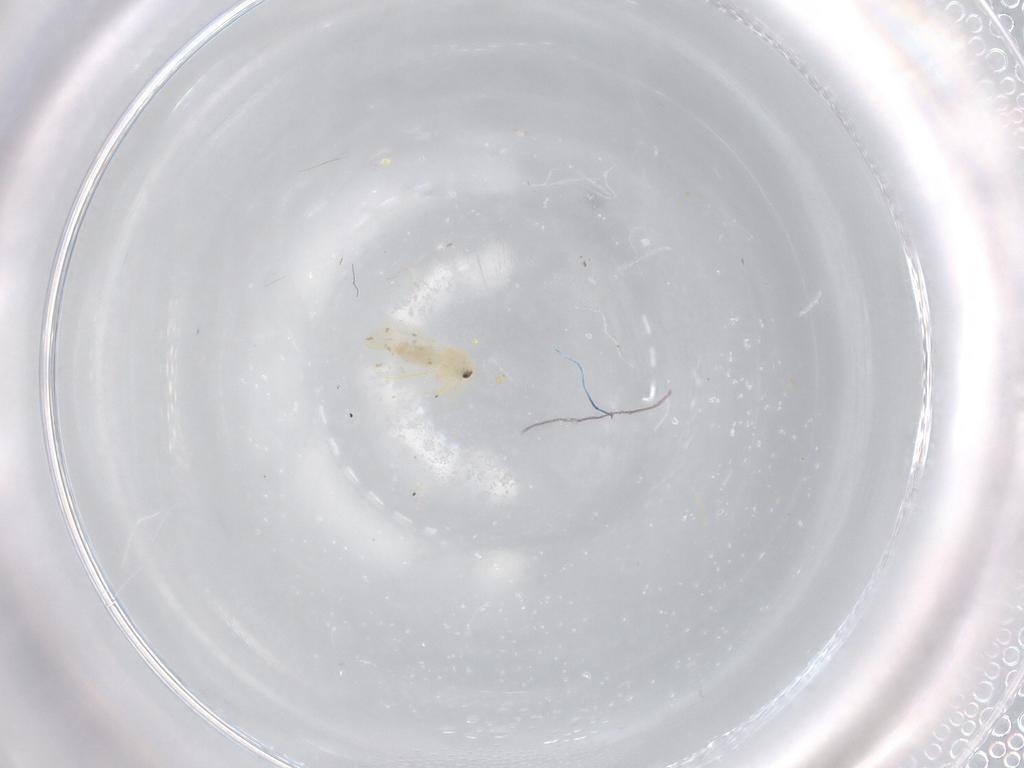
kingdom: Animalia
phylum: Arthropoda
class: Insecta
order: Hemiptera
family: Aleyrodidae
